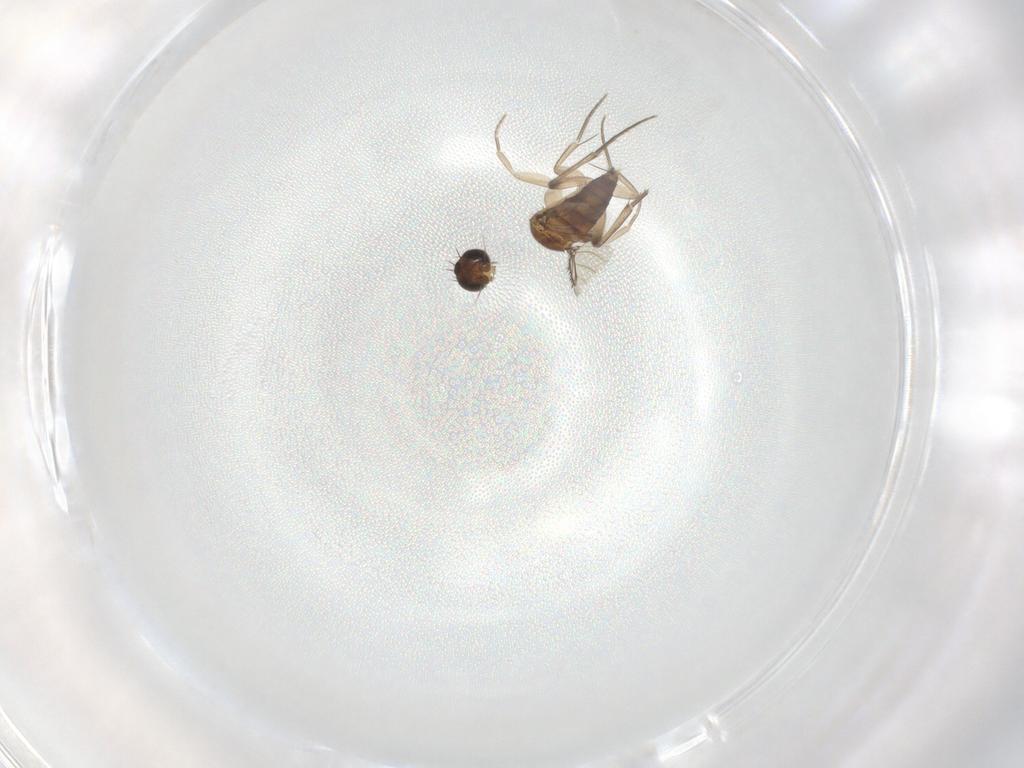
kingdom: Animalia
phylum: Arthropoda
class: Insecta
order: Diptera
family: Phoridae
